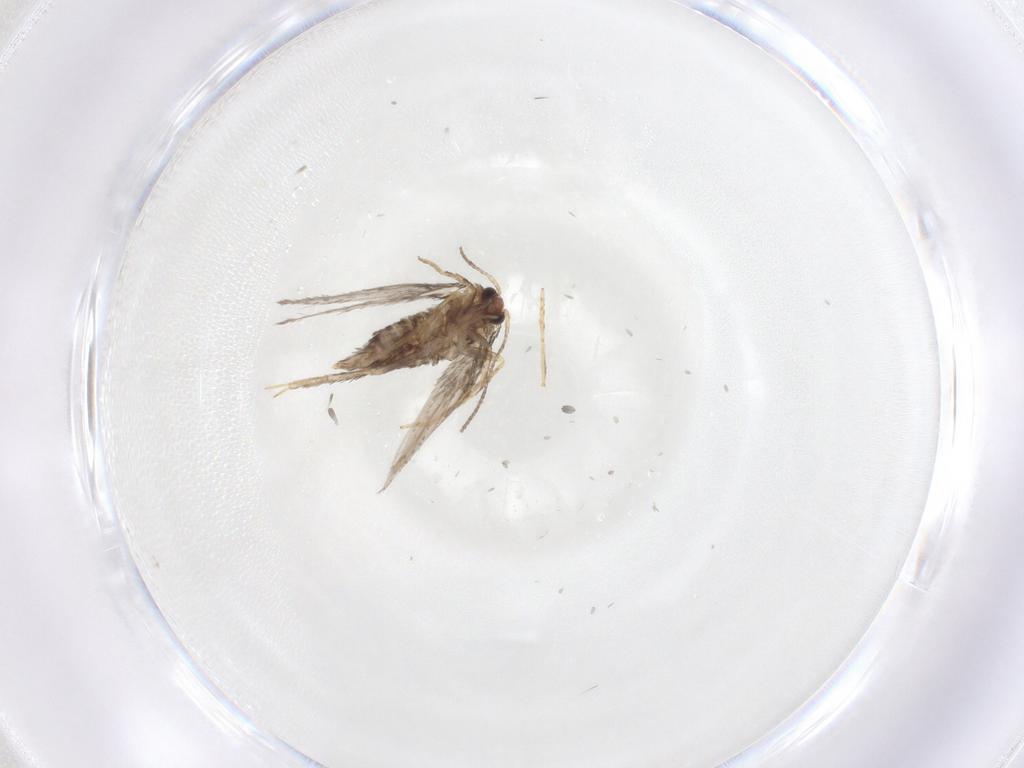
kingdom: Animalia
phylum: Arthropoda
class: Insecta
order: Lepidoptera
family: Nepticulidae
